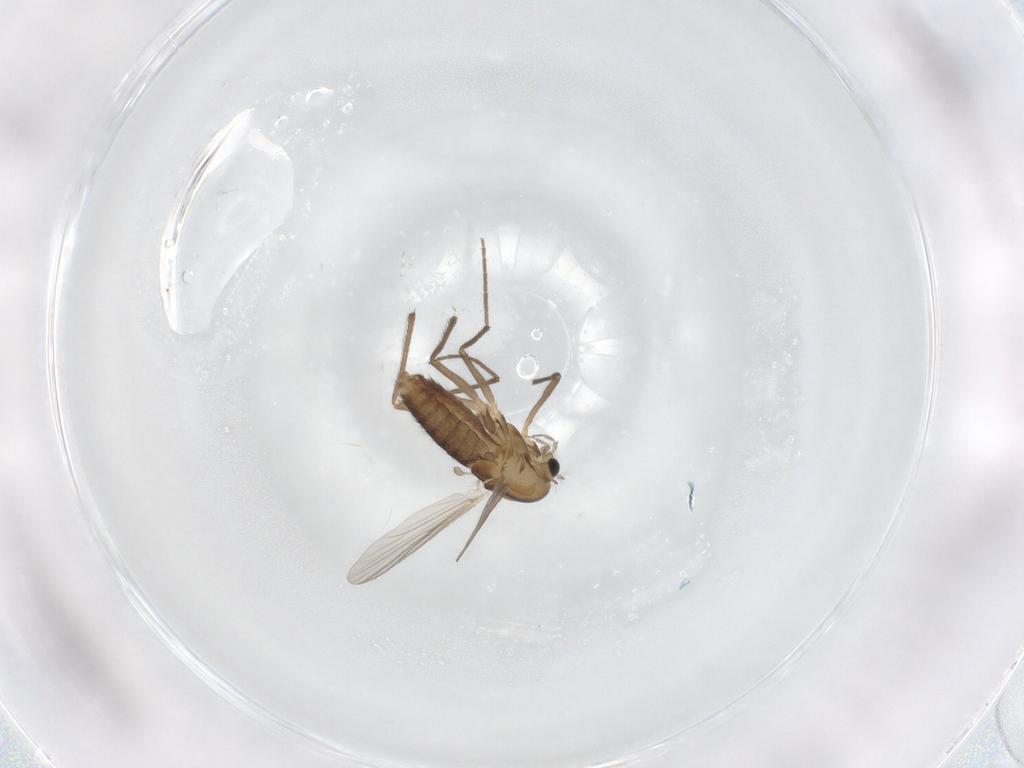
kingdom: Animalia
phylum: Arthropoda
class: Insecta
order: Diptera
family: Chironomidae
